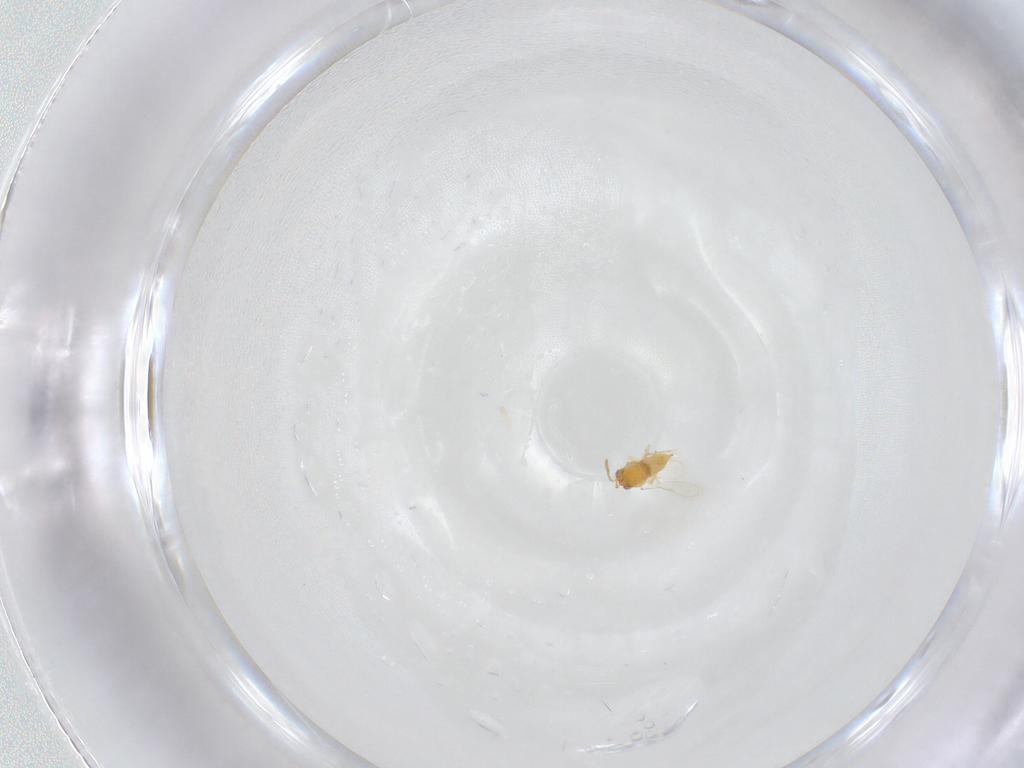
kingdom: Animalia
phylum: Arthropoda
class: Insecta
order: Hymenoptera
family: Aphelinidae
